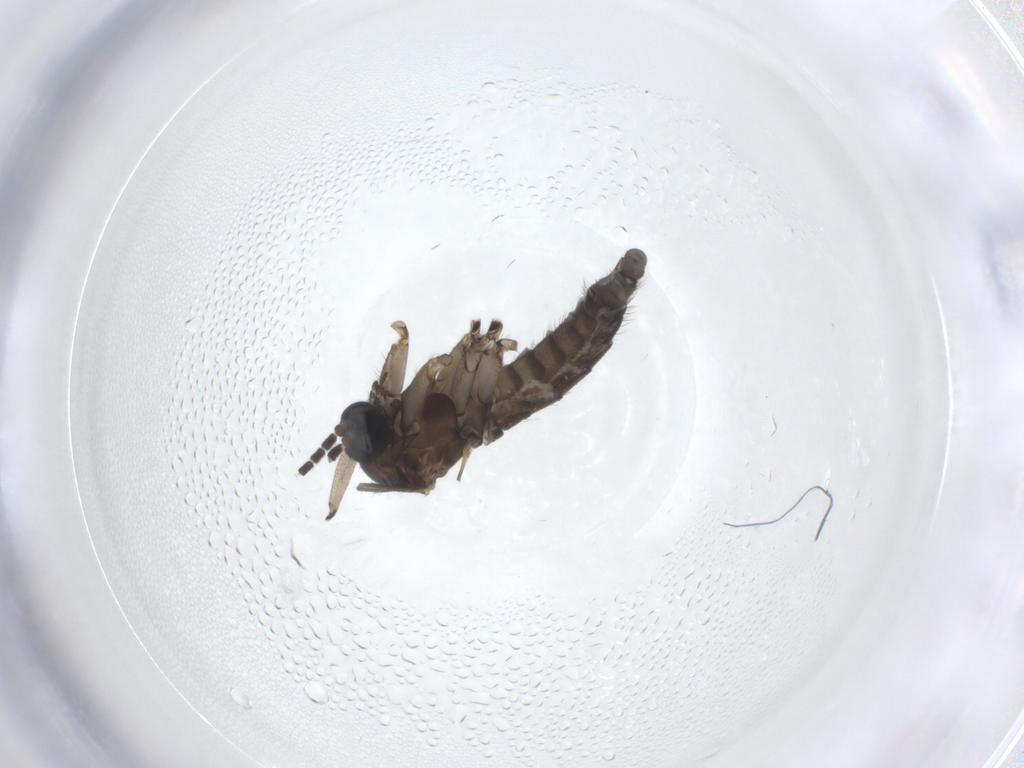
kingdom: Animalia
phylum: Arthropoda
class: Insecta
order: Diptera
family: Sciaridae
